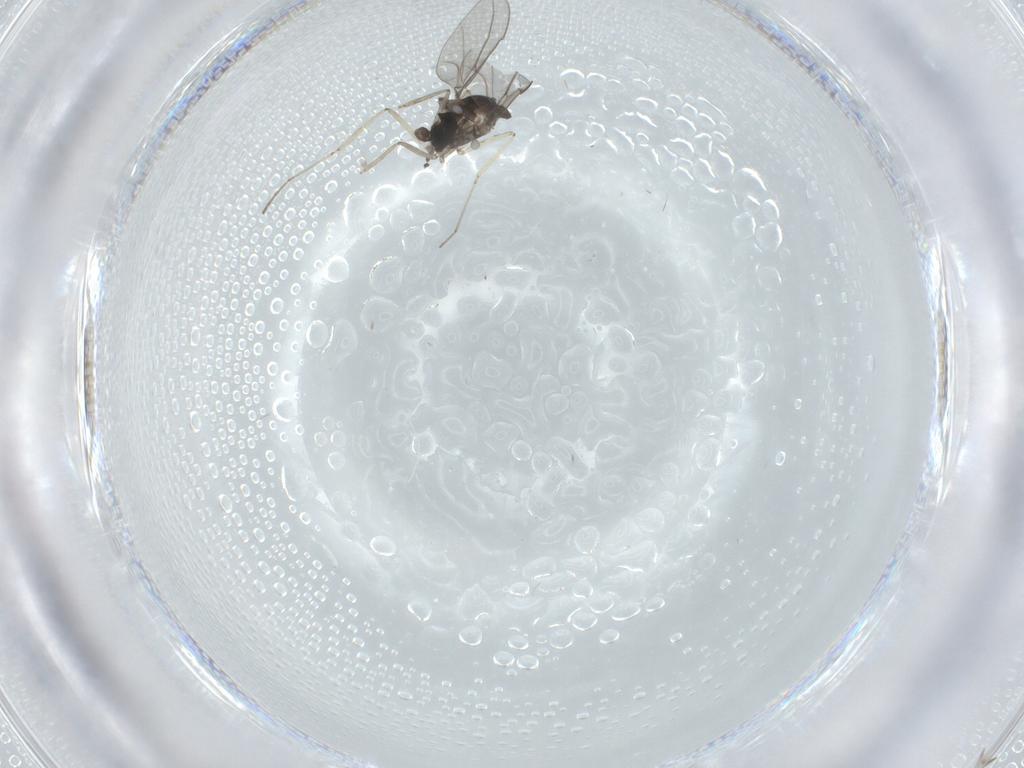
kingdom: Animalia
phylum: Arthropoda
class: Insecta
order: Diptera
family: Cecidomyiidae
